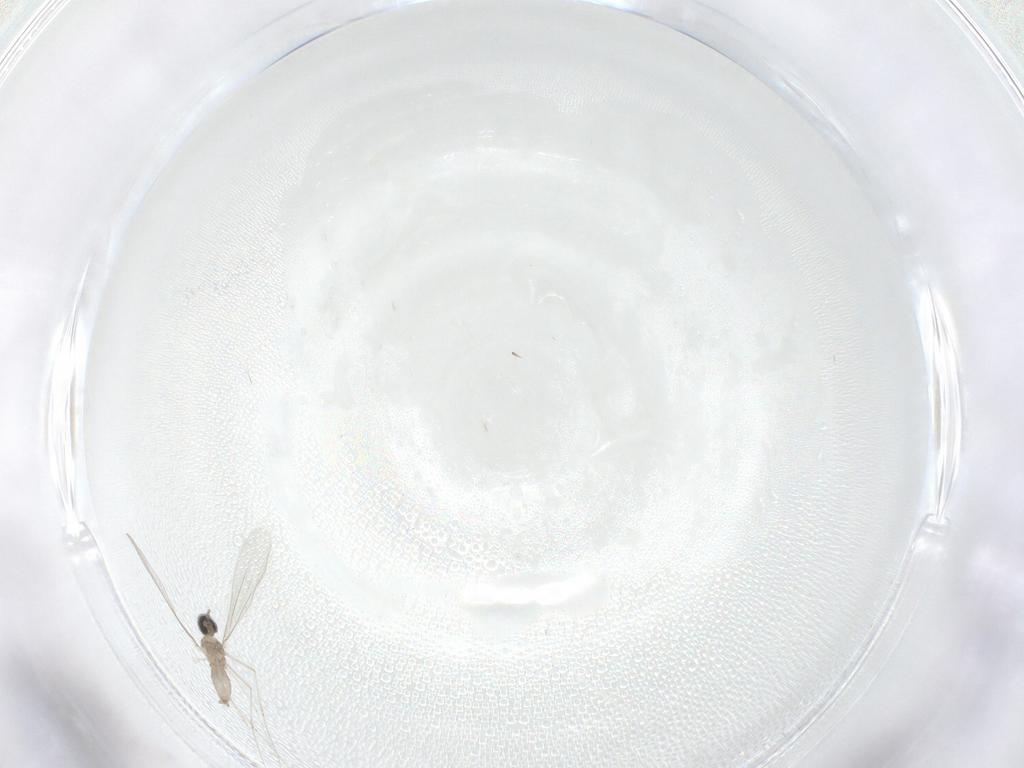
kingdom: Animalia
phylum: Arthropoda
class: Insecta
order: Diptera
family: Cecidomyiidae
